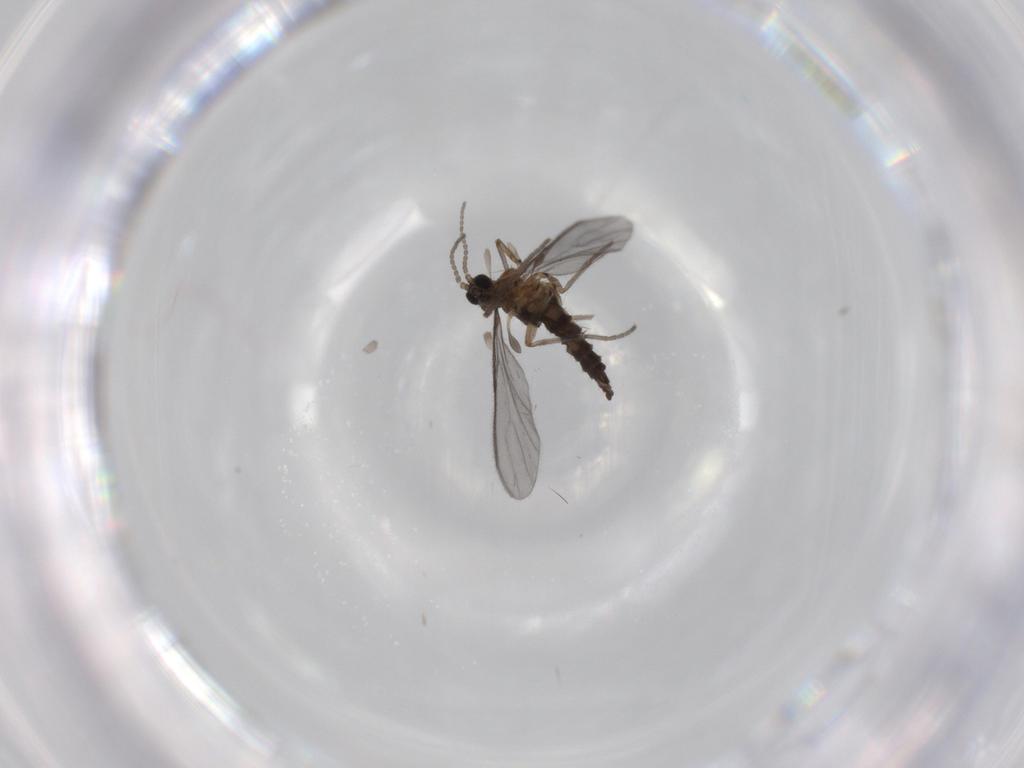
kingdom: Animalia
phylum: Arthropoda
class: Insecta
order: Diptera
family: Sciaridae
